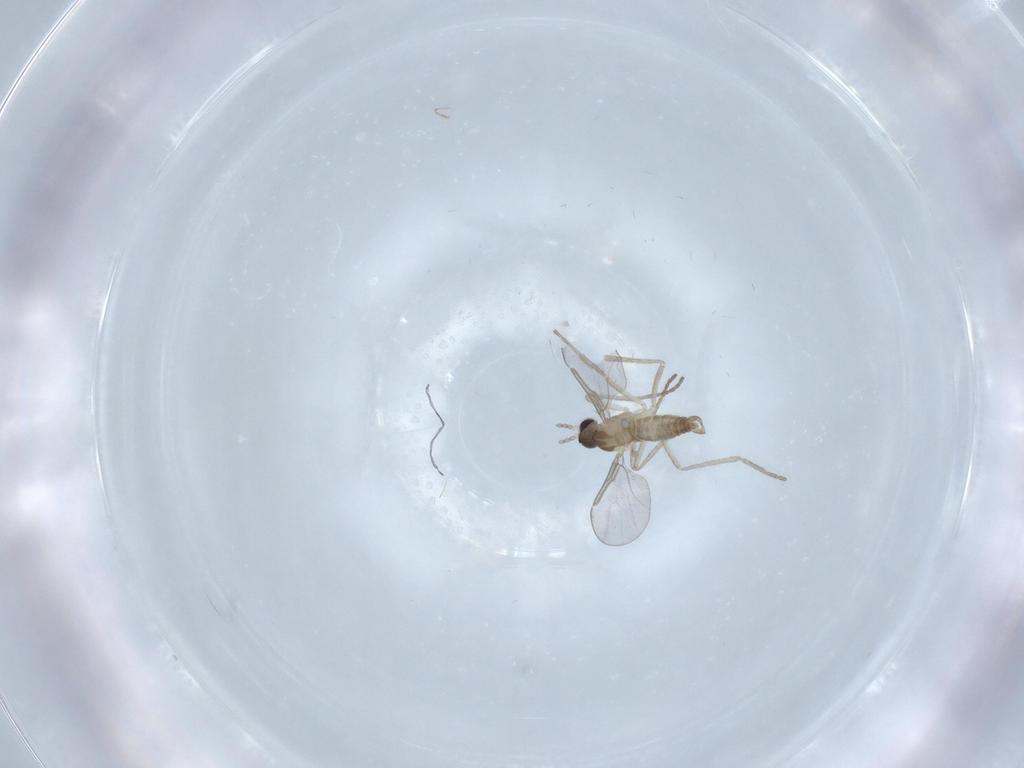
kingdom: Animalia
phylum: Arthropoda
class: Insecta
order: Diptera
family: Cecidomyiidae
